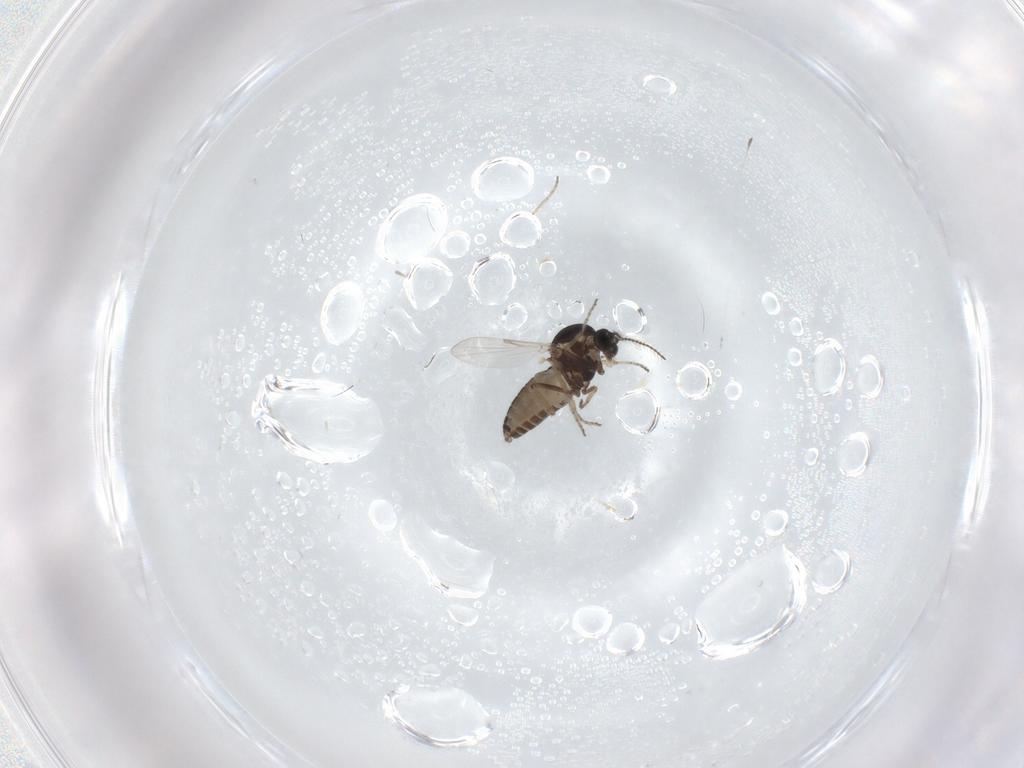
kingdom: Animalia
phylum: Arthropoda
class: Insecta
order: Diptera
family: Ceratopogonidae
